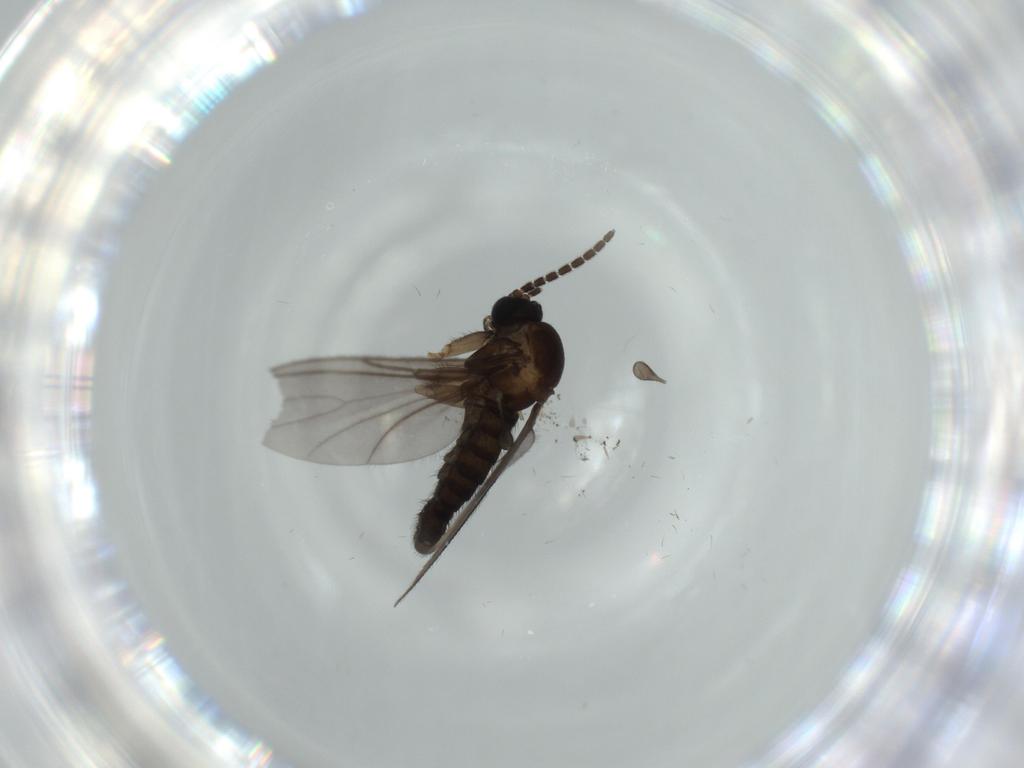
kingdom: Animalia
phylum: Arthropoda
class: Insecta
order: Diptera
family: Sciaridae
